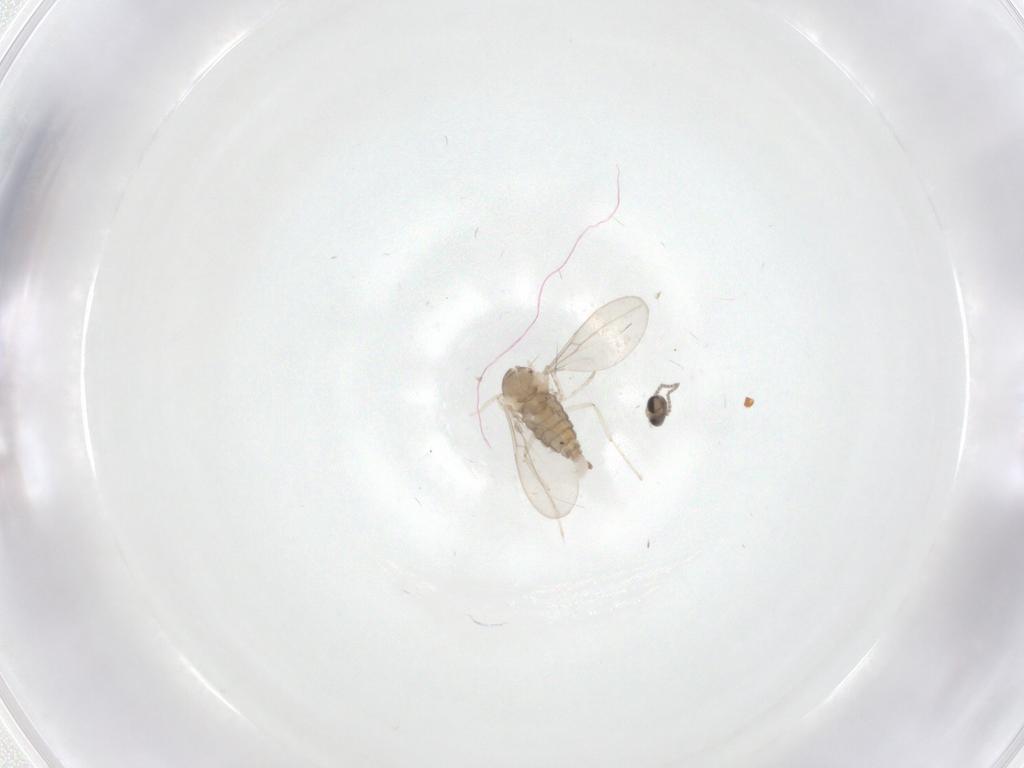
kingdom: Animalia
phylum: Arthropoda
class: Insecta
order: Diptera
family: Cecidomyiidae
